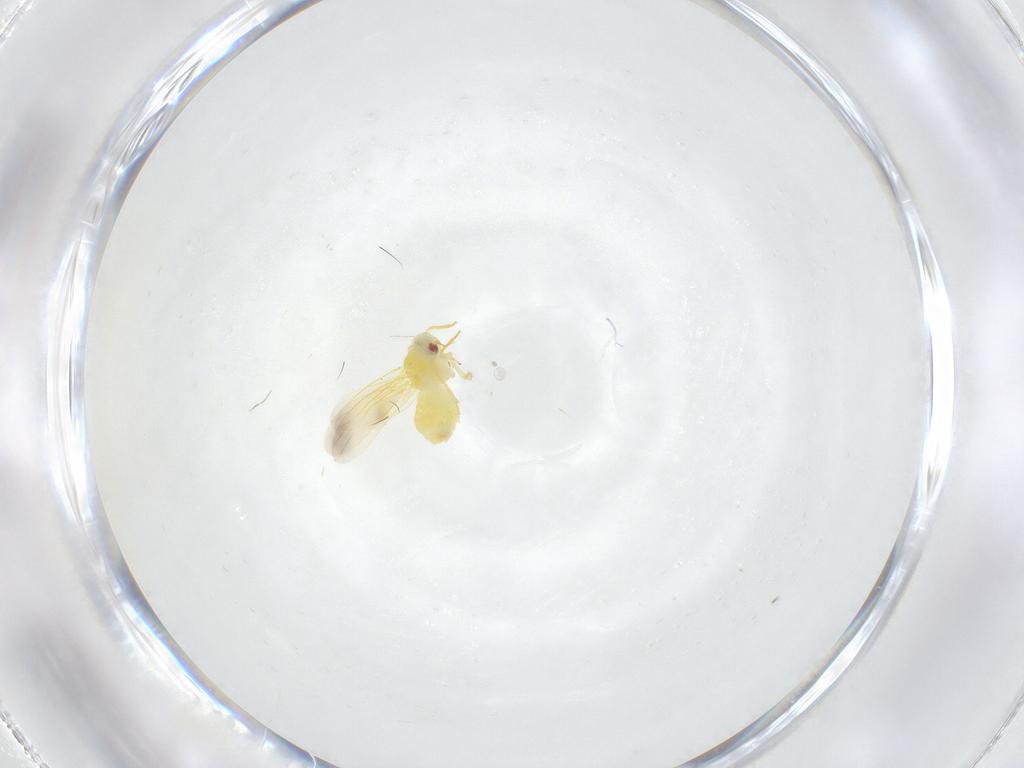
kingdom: Animalia
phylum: Arthropoda
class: Insecta
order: Hemiptera
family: Aleyrodidae
